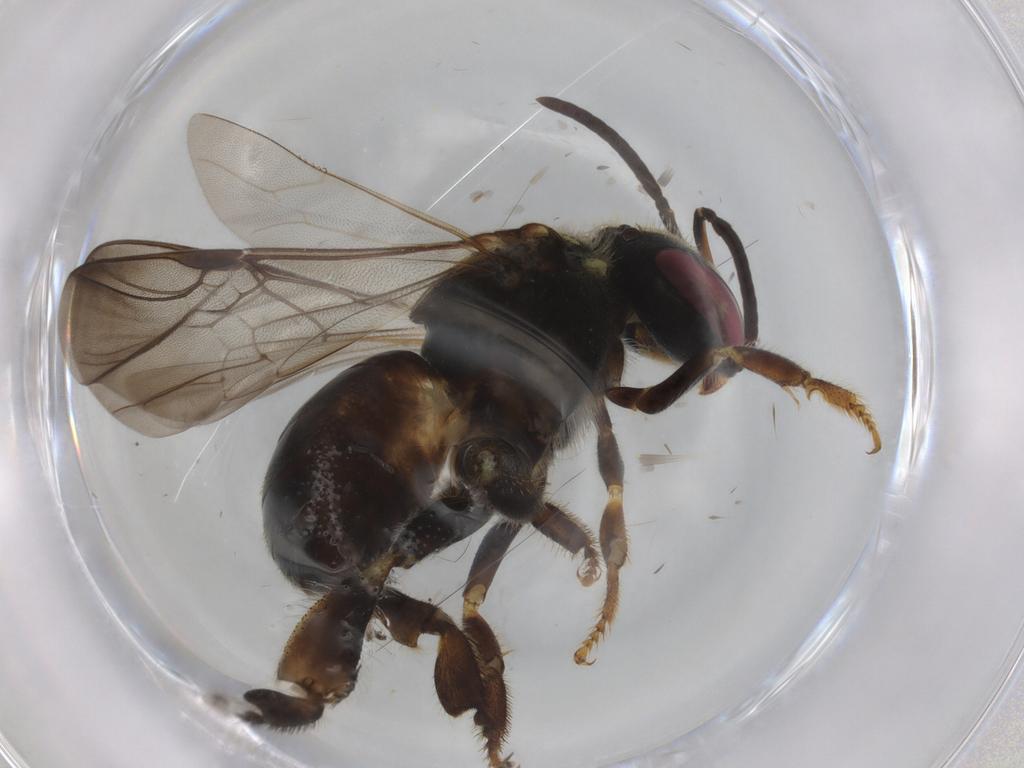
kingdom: Animalia
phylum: Arthropoda
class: Insecta
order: Hymenoptera
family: Apidae
